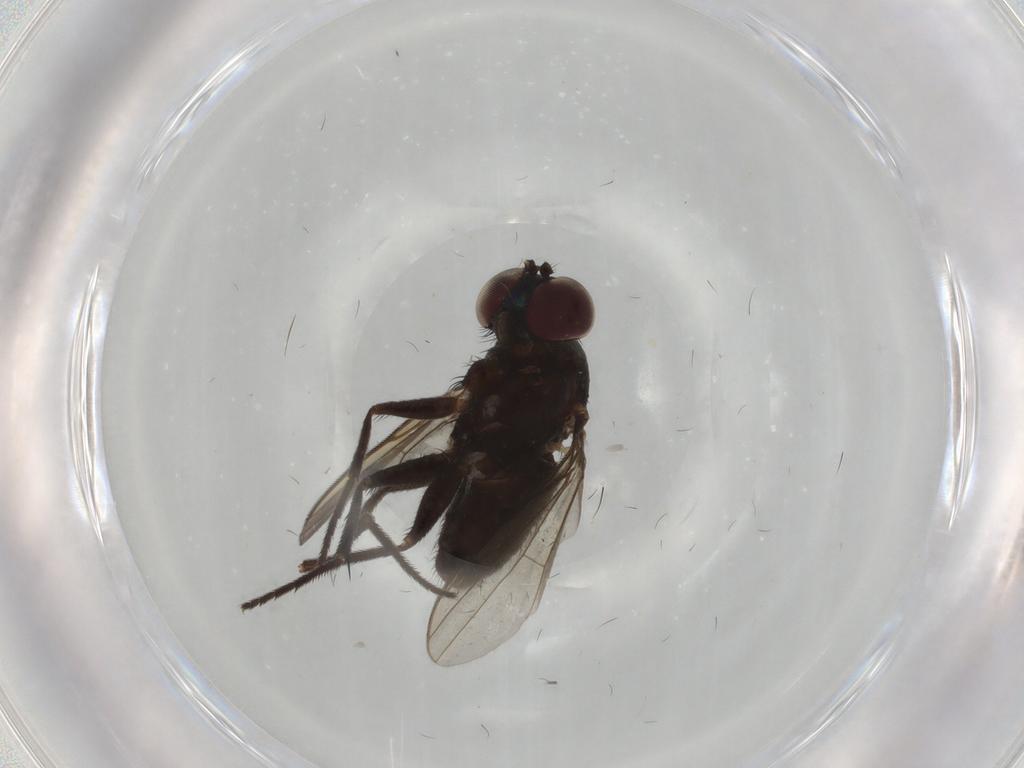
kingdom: Animalia
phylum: Arthropoda
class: Insecta
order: Diptera
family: Dolichopodidae
